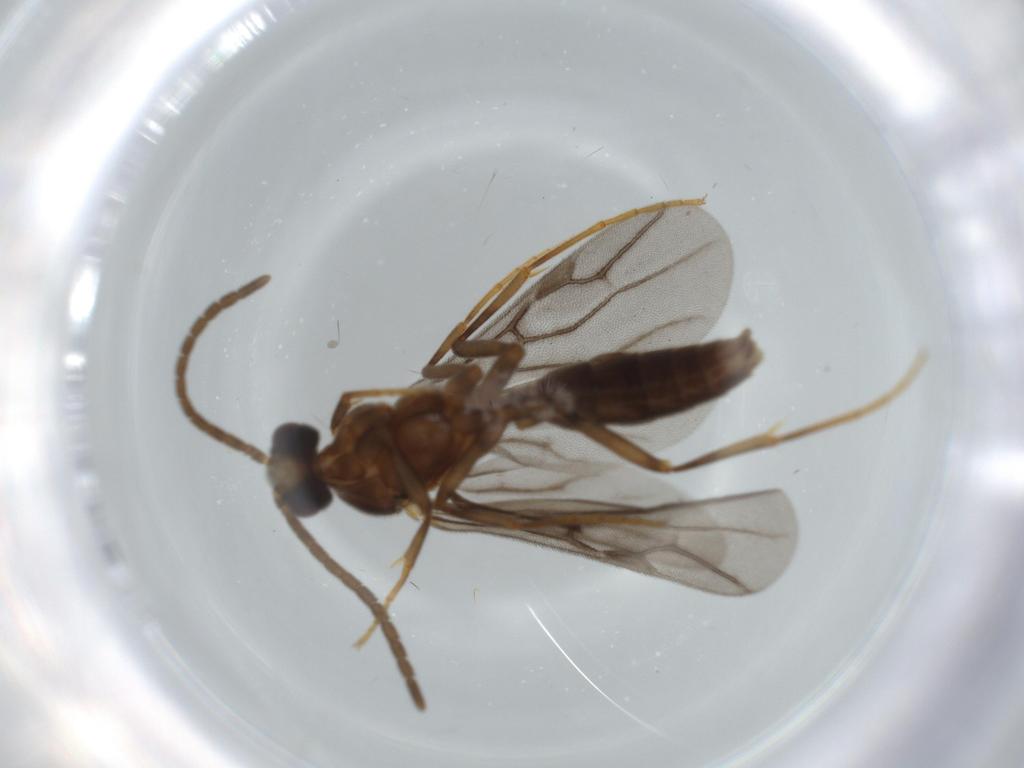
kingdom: Animalia
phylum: Arthropoda
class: Insecta
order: Hymenoptera
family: Formicidae
